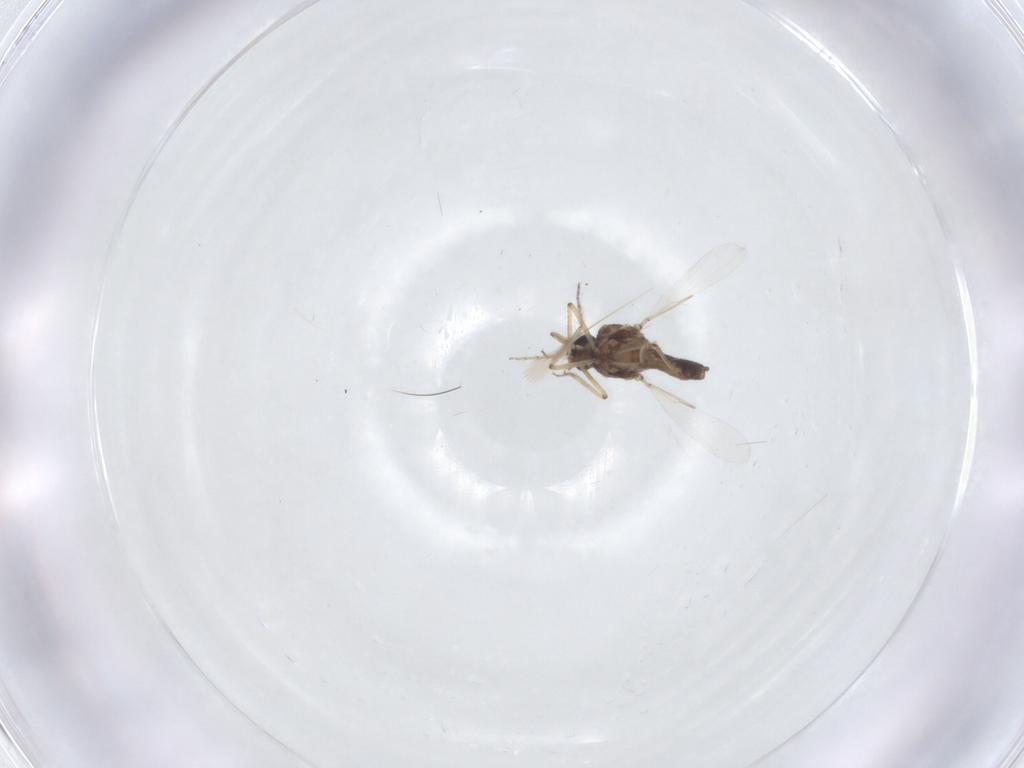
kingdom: Animalia
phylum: Arthropoda
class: Insecta
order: Diptera
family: Ceratopogonidae
